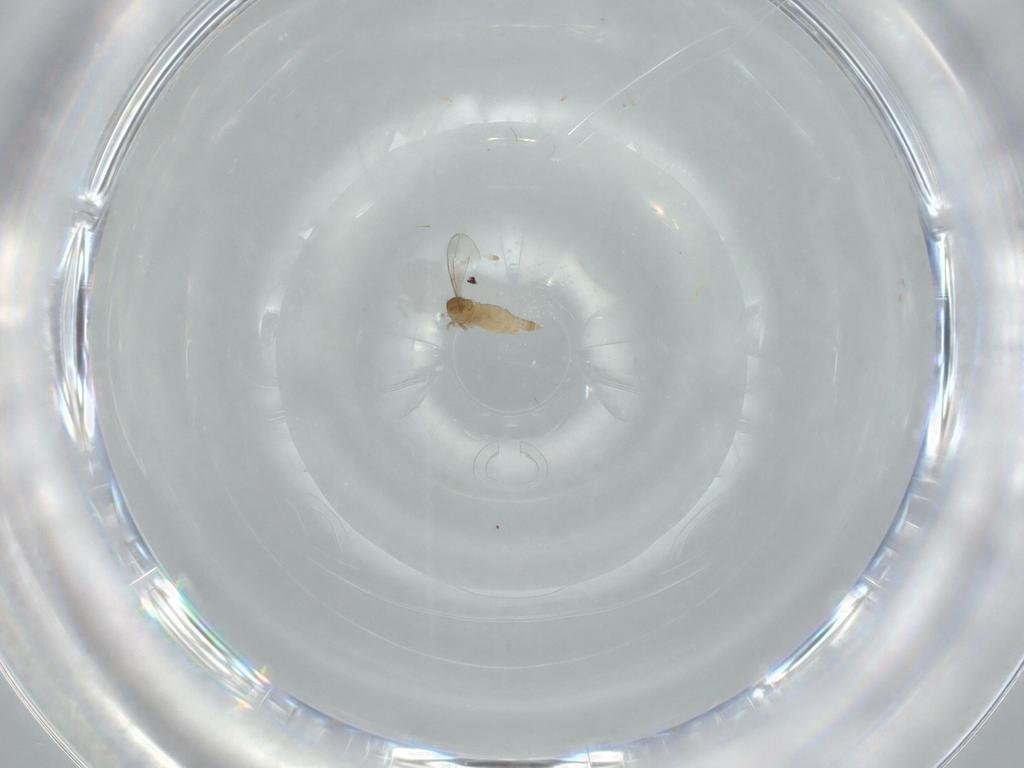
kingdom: Animalia
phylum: Arthropoda
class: Insecta
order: Diptera
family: Cecidomyiidae
